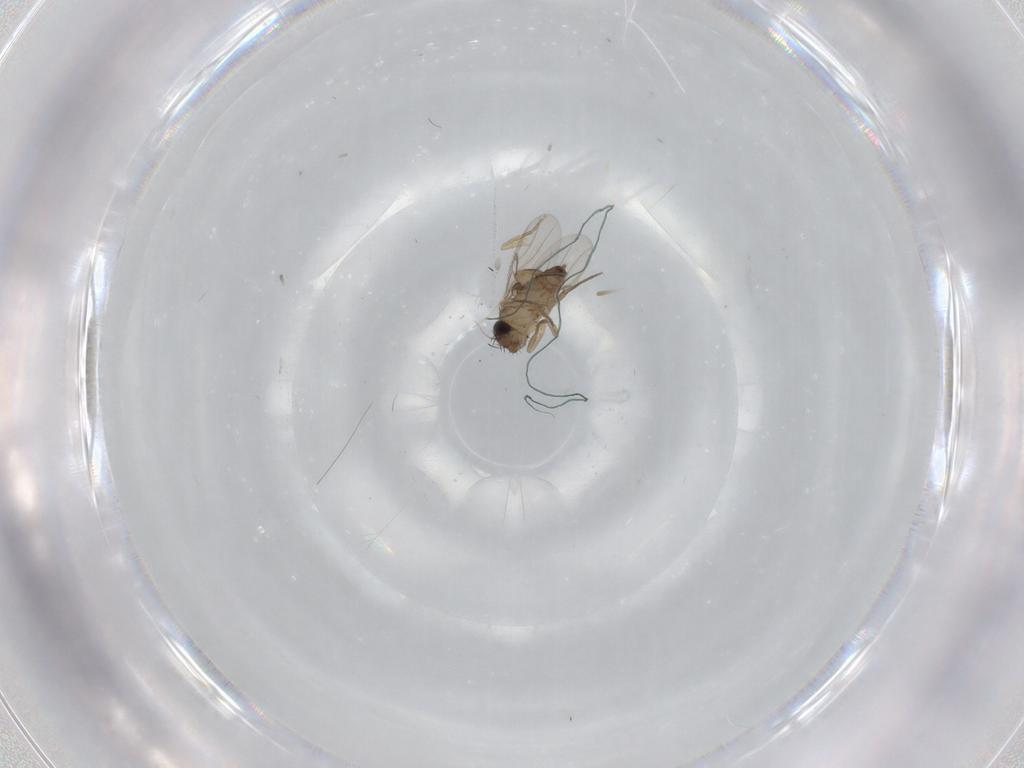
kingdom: Animalia
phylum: Arthropoda
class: Insecta
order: Diptera
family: Phoridae
